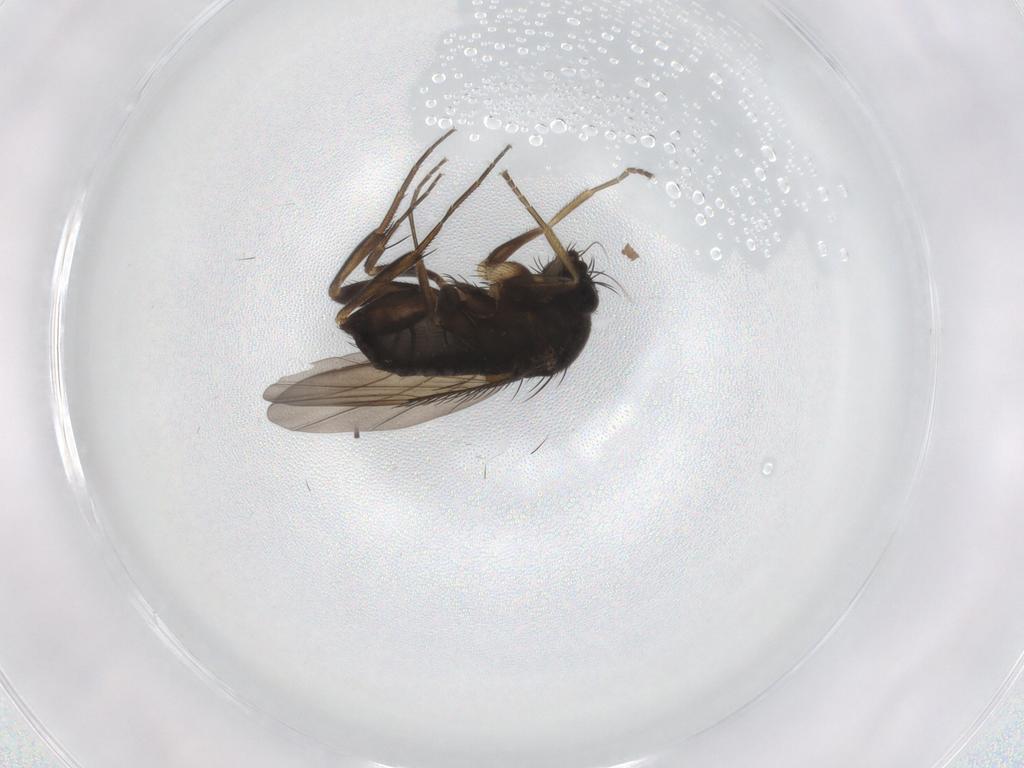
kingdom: Animalia
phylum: Arthropoda
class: Insecta
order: Diptera
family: Phoridae
